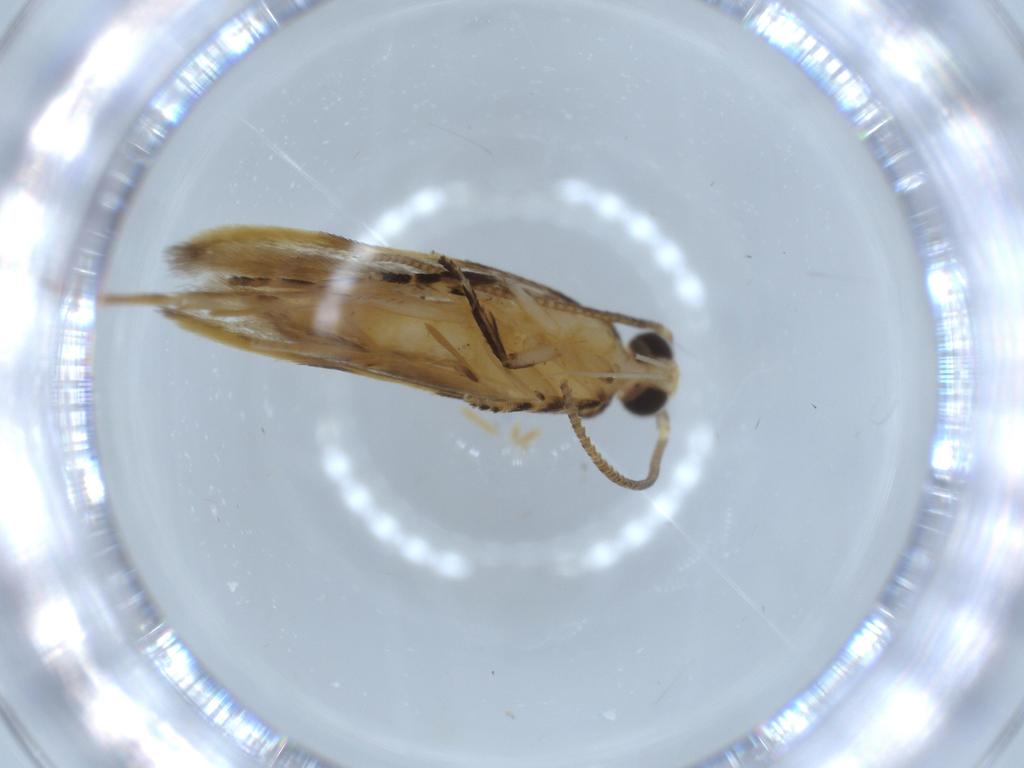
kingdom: Animalia
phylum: Arthropoda
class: Insecta
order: Lepidoptera
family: Autostichidae
